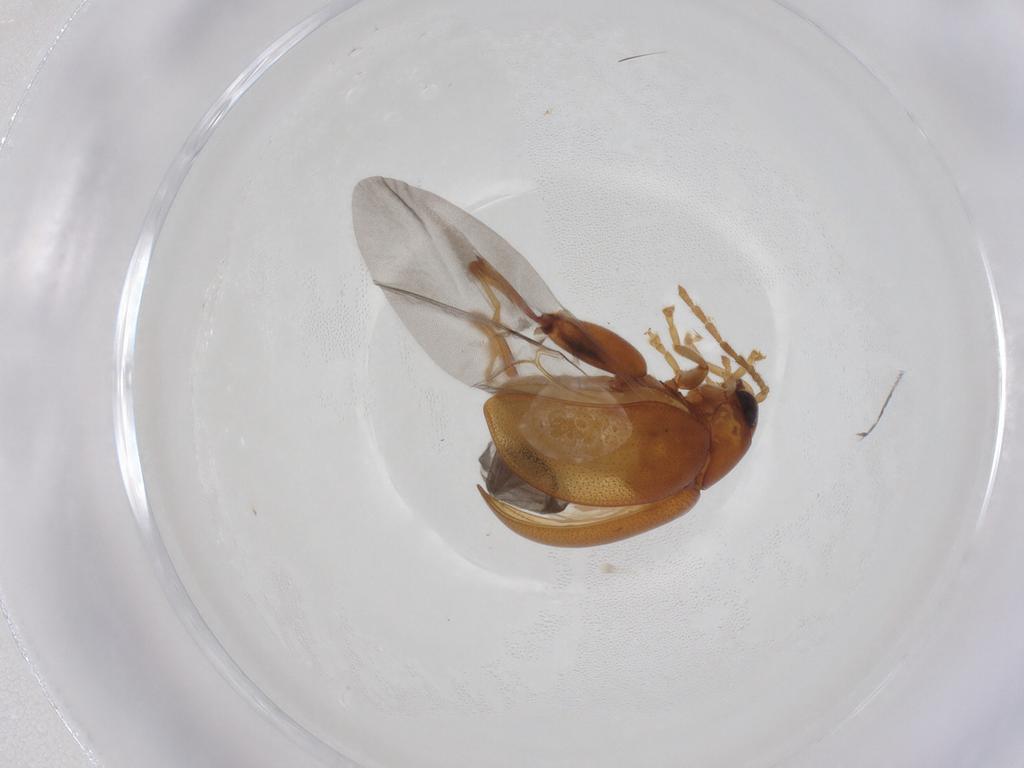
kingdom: Animalia
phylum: Arthropoda
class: Insecta
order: Coleoptera
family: Chrysomelidae
